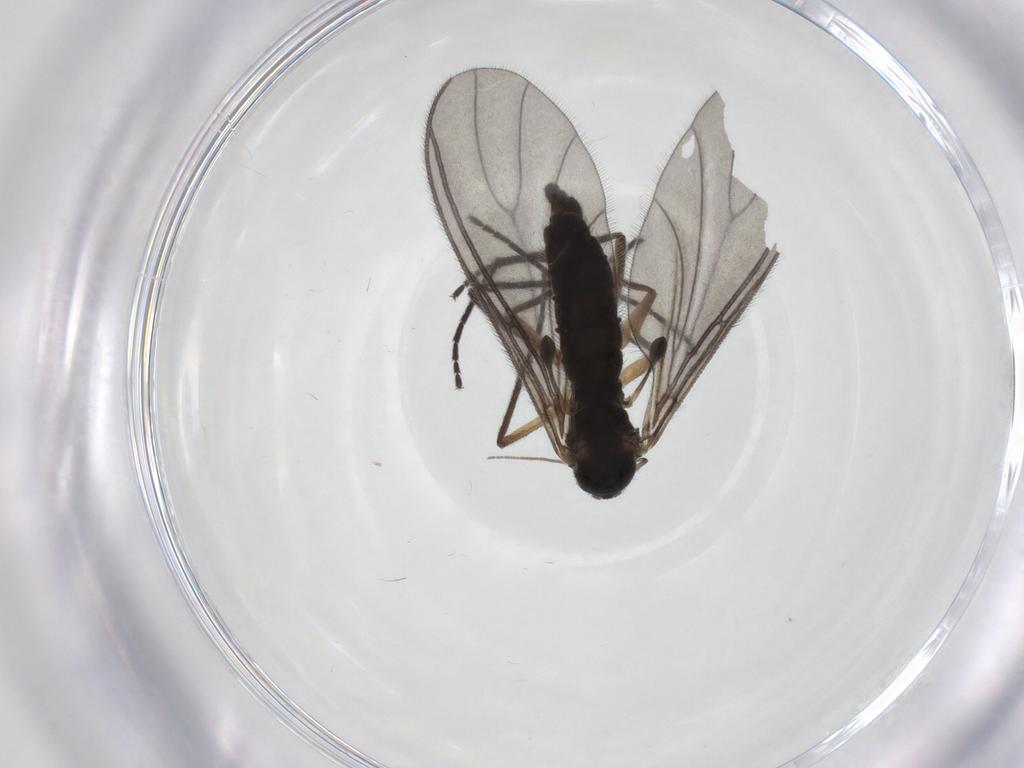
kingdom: Animalia
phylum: Arthropoda
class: Insecta
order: Diptera
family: Sciaridae
